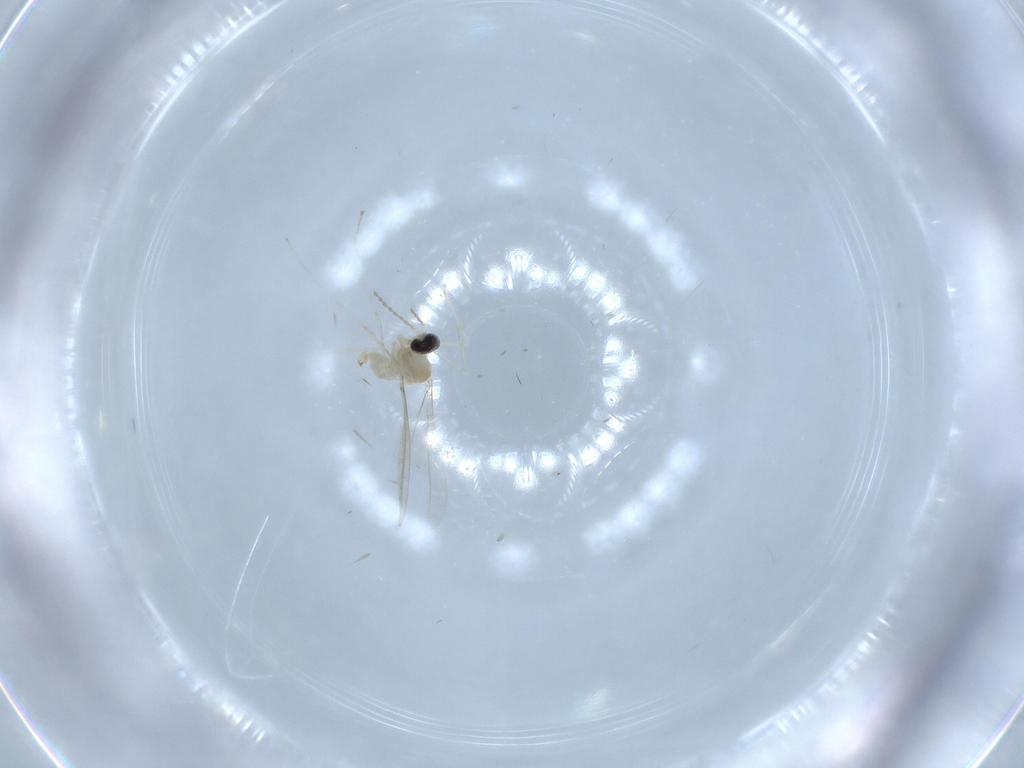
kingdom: Animalia
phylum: Arthropoda
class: Insecta
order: Diptera
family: Cecidomyiidae
